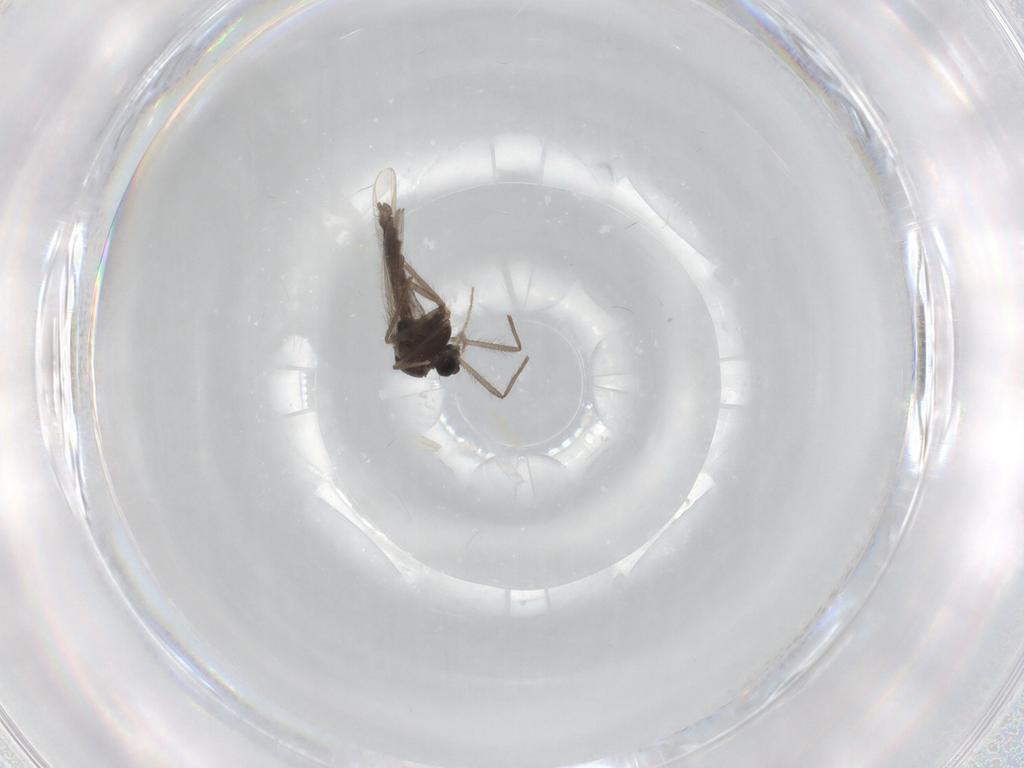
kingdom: Animalia
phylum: Arthropoda
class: Insecta
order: Diptera
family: Chironomidae
